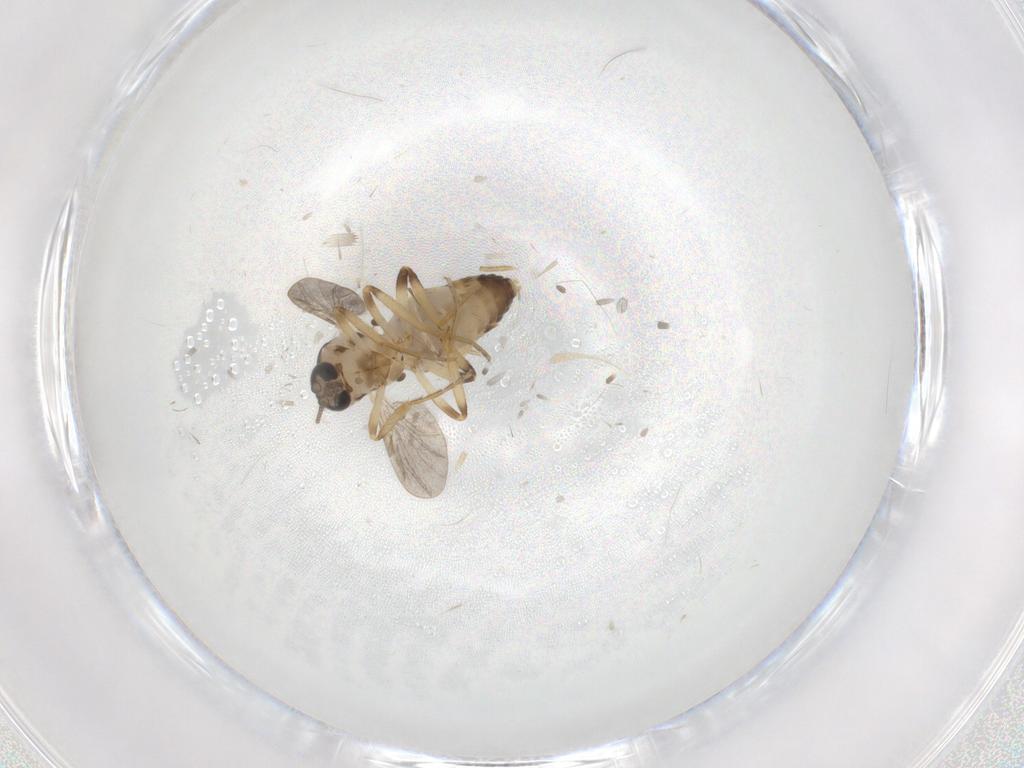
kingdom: Animalia
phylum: Arthropoda
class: Insecta
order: Diptera
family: Ceratopogonidae
